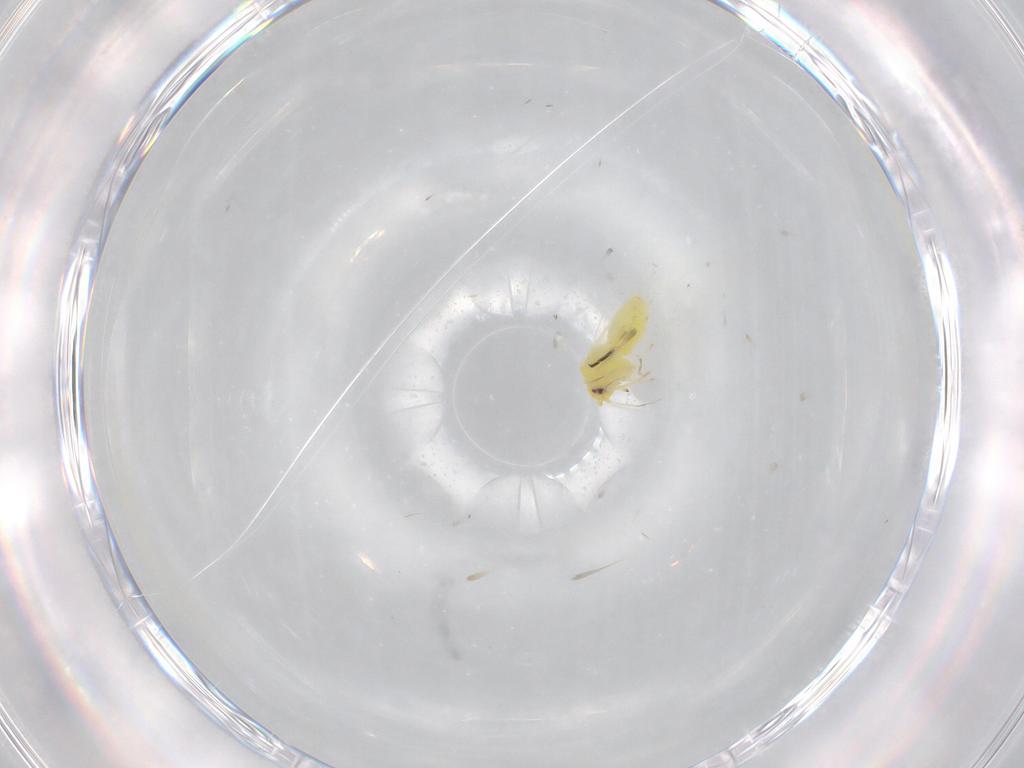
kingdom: Animalia
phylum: Arthropoda
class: Insecta
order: Hemiptera
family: Aleyrodidae
